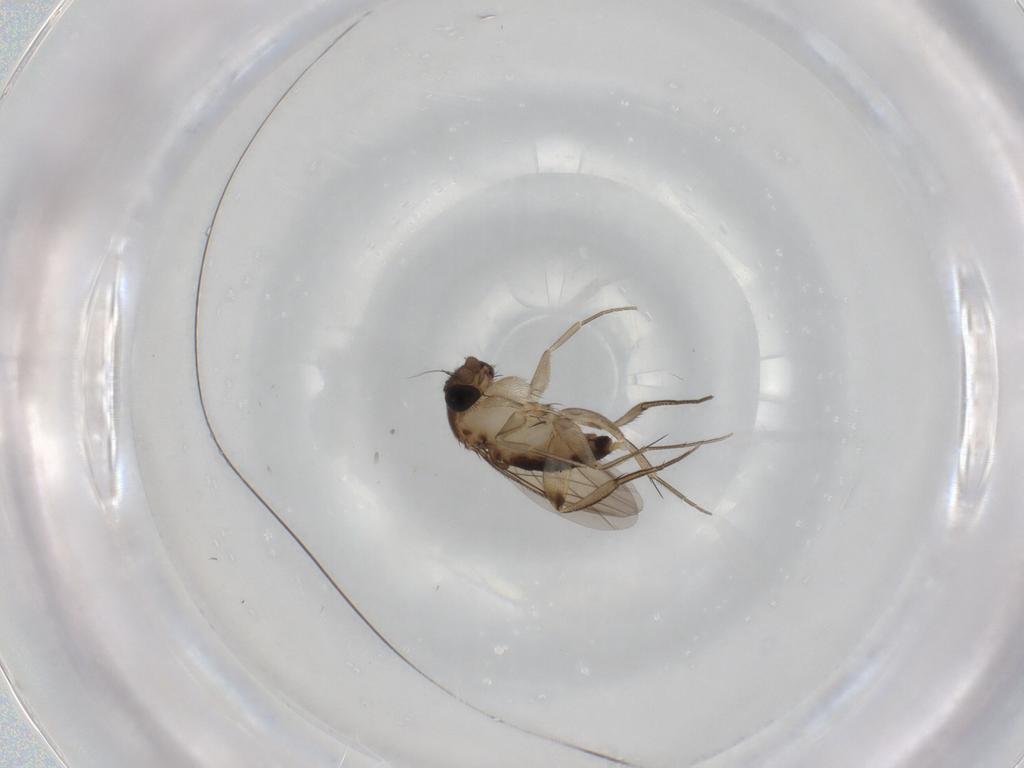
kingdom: Animalia
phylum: Arthropoda
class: Insecta
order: Diptera
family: Phoridae
